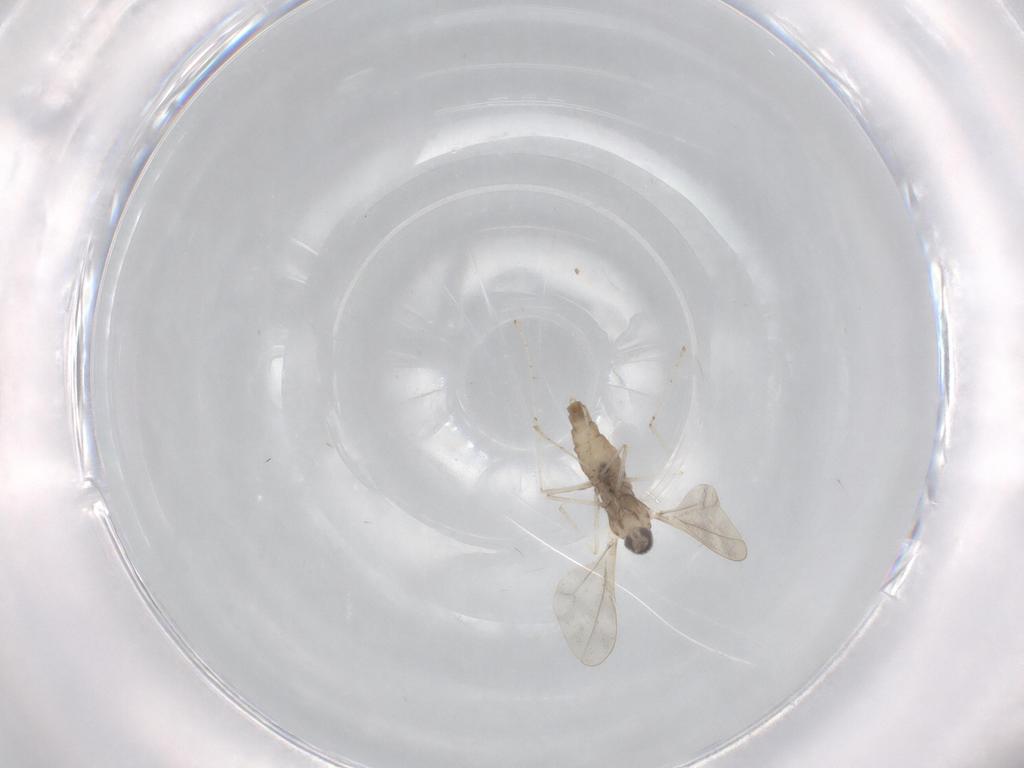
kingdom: Animalia
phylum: Arthropoda
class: Insecta
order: Diptera
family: Cecidomyiidae
